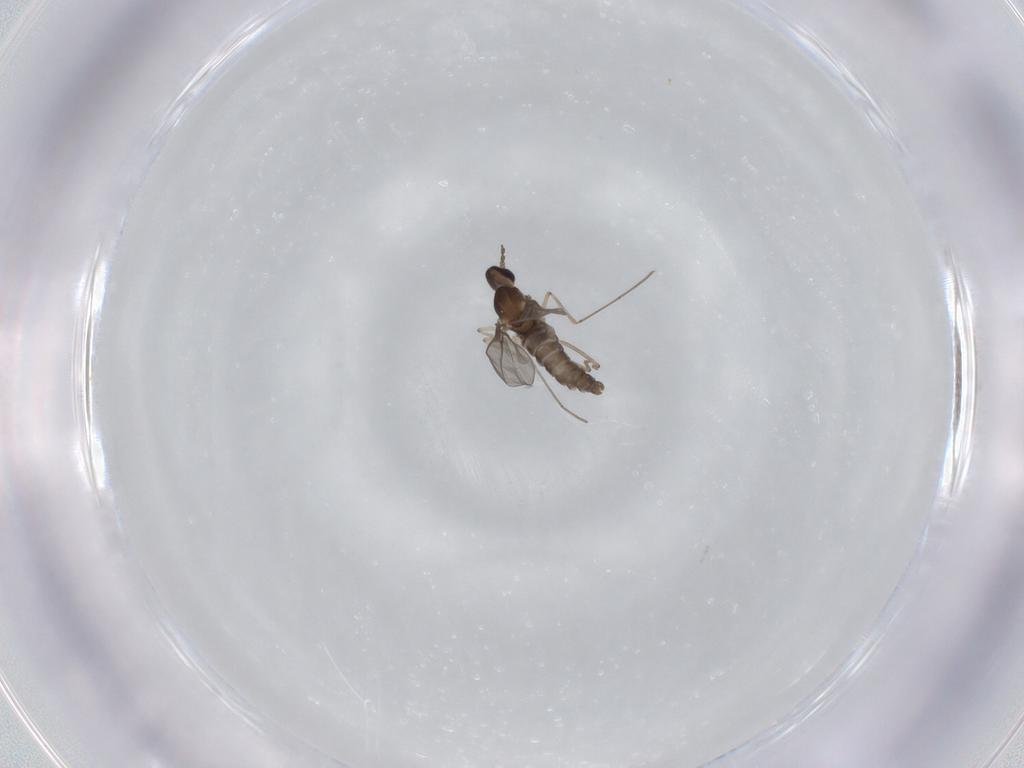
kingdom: Animalia
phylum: Arthropoda
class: Insecta
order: Diptera
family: Cecidomyiidae
